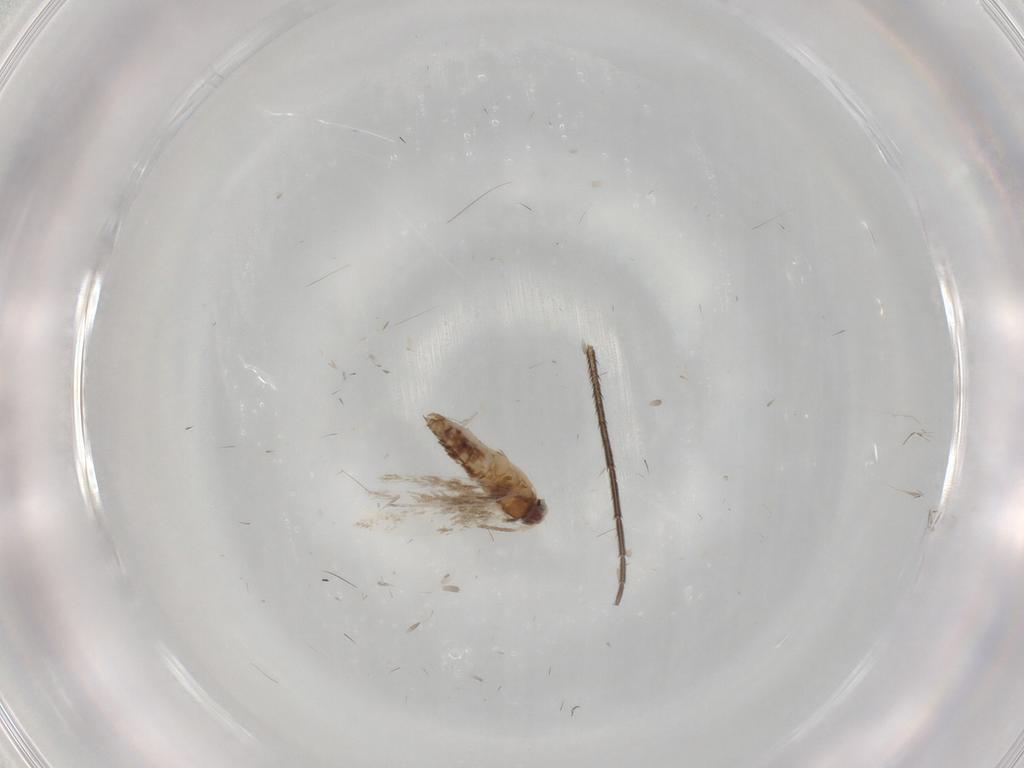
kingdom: Animalia
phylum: Arthropoda
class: Insecta
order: Lepidoptera
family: Nepticulidae
